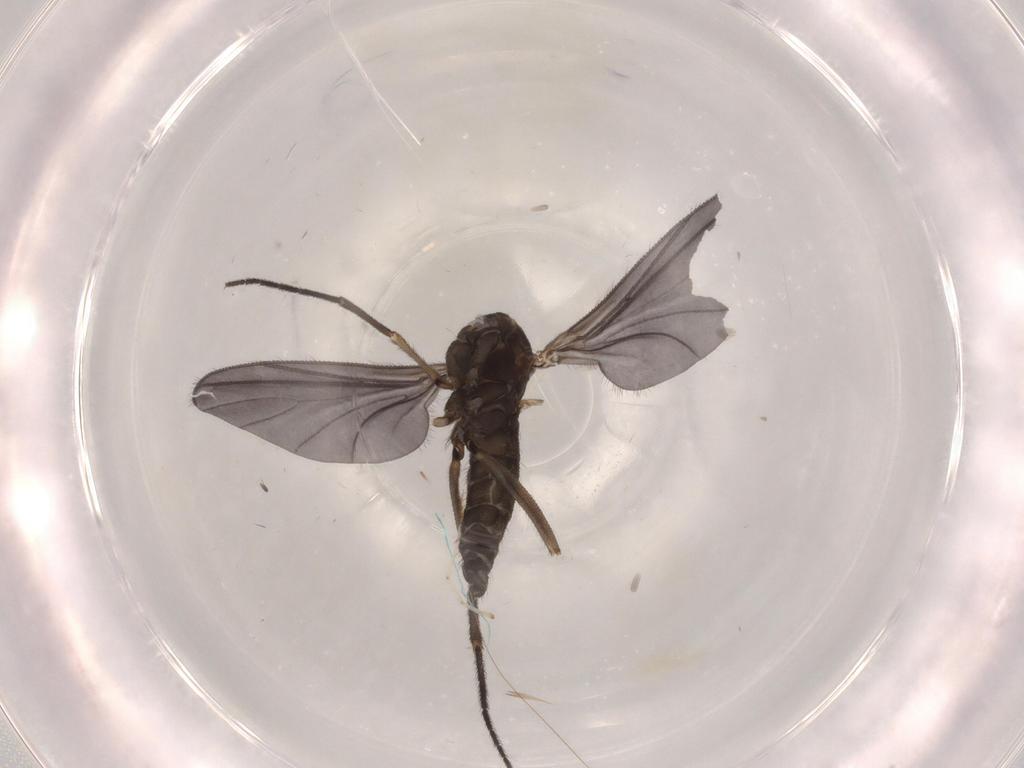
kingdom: Animalia
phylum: Arthropoda
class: Insecta
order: Diptera
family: Sciaridae
